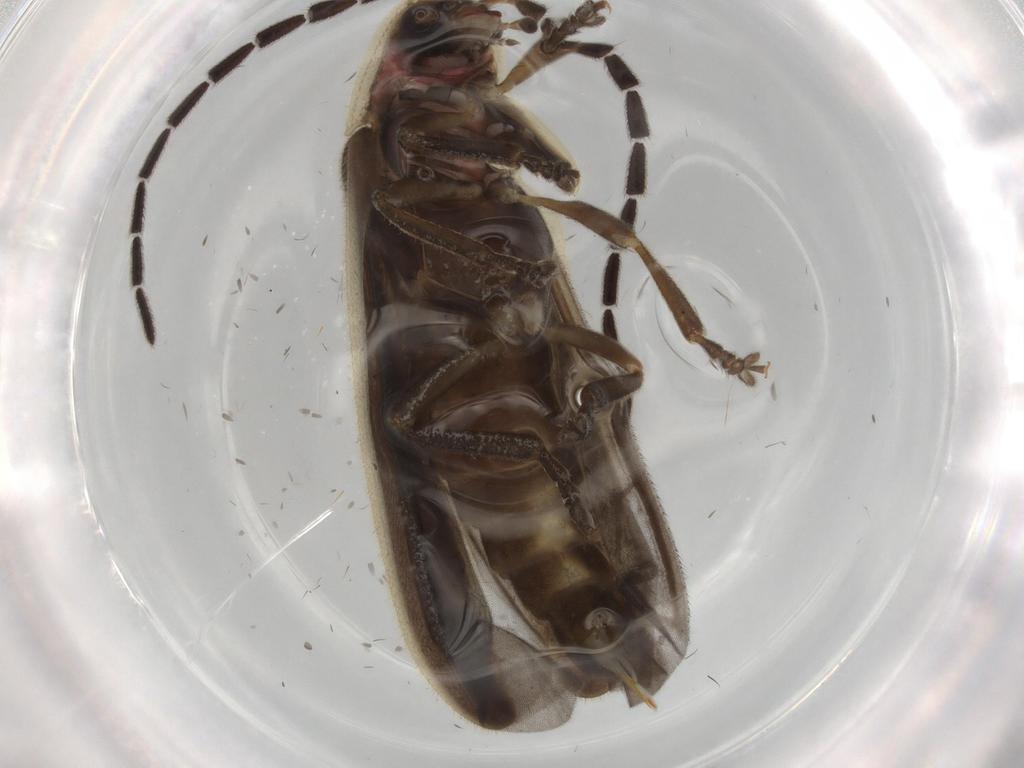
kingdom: Animalia
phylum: Arthropoda
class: Insecta
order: Coleoptera
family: Lampyridae
